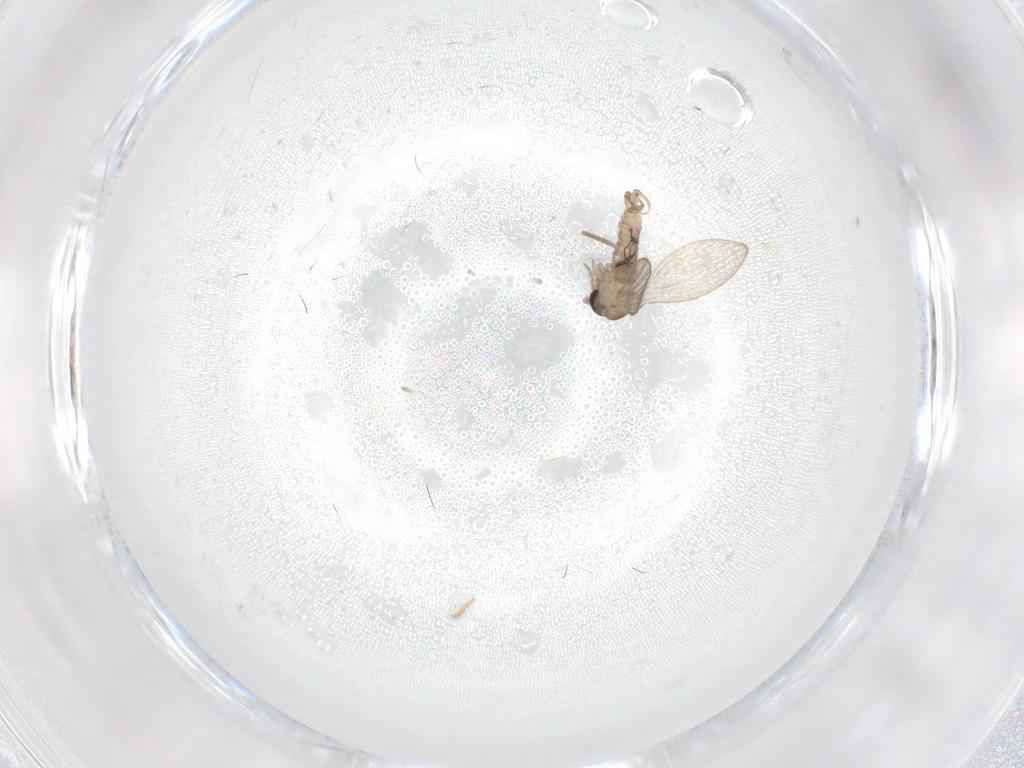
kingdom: Animalia
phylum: Arthropoda
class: Insecta
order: Diptera
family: Psychodidae
